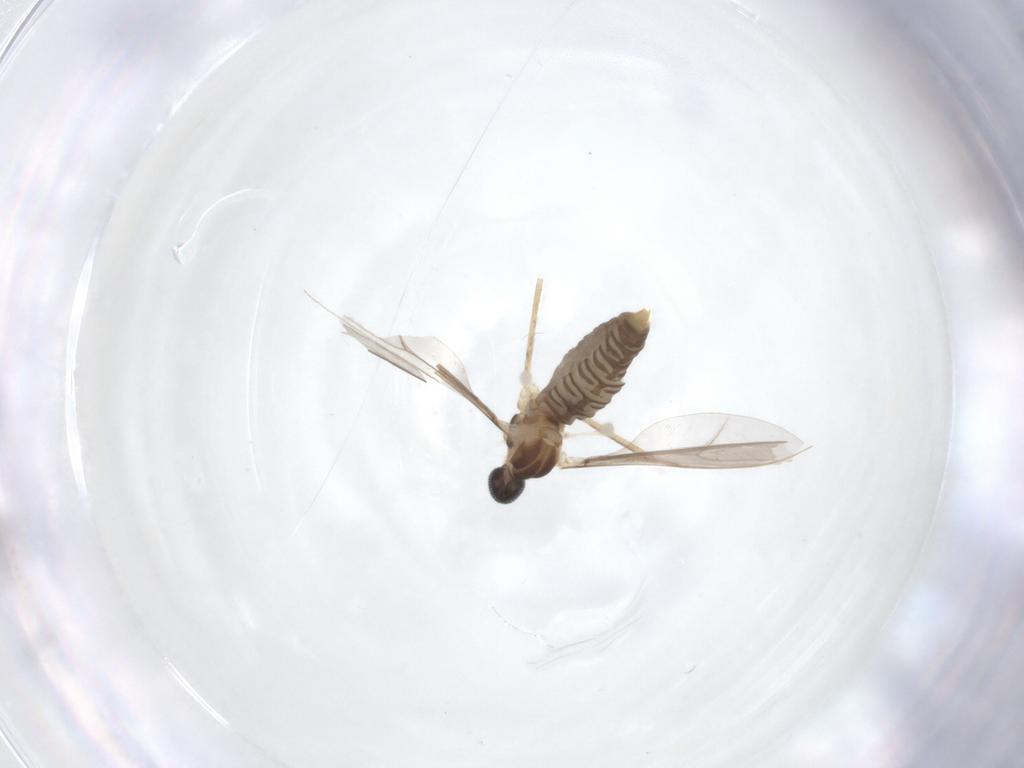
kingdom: Animalia
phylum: Arthropoda
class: Insecta
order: Diptera
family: Cecidomyiidae
